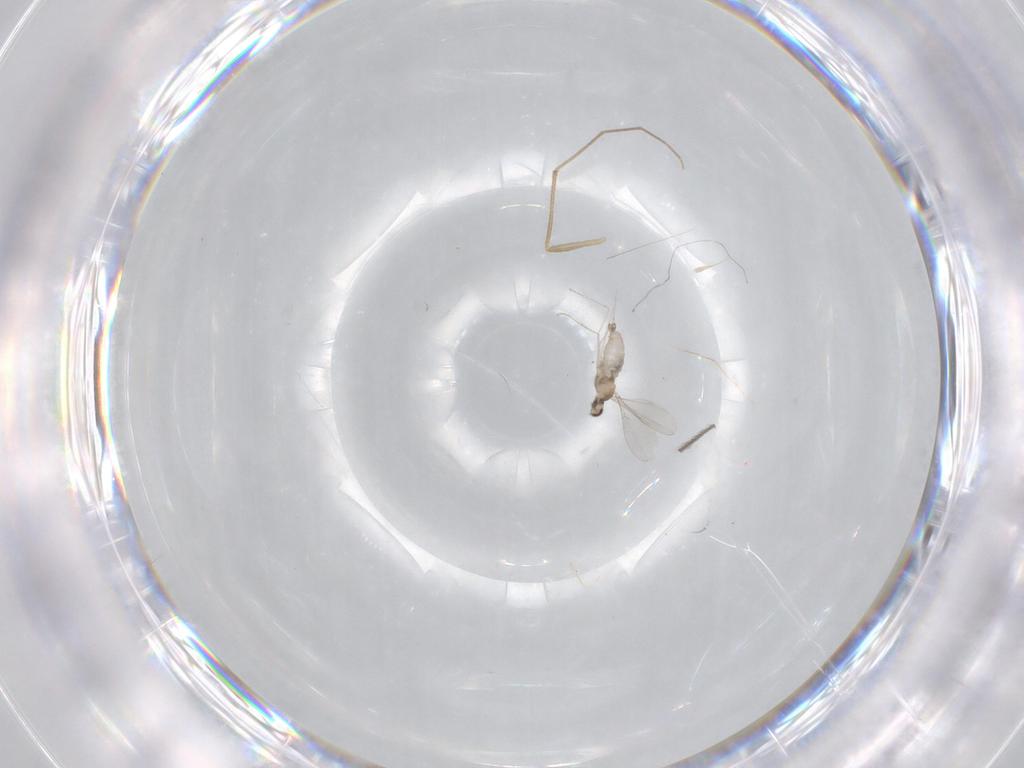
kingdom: Animalia
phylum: Arthropoda
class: Insecta
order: Diptera
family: Cecidomyiidae
